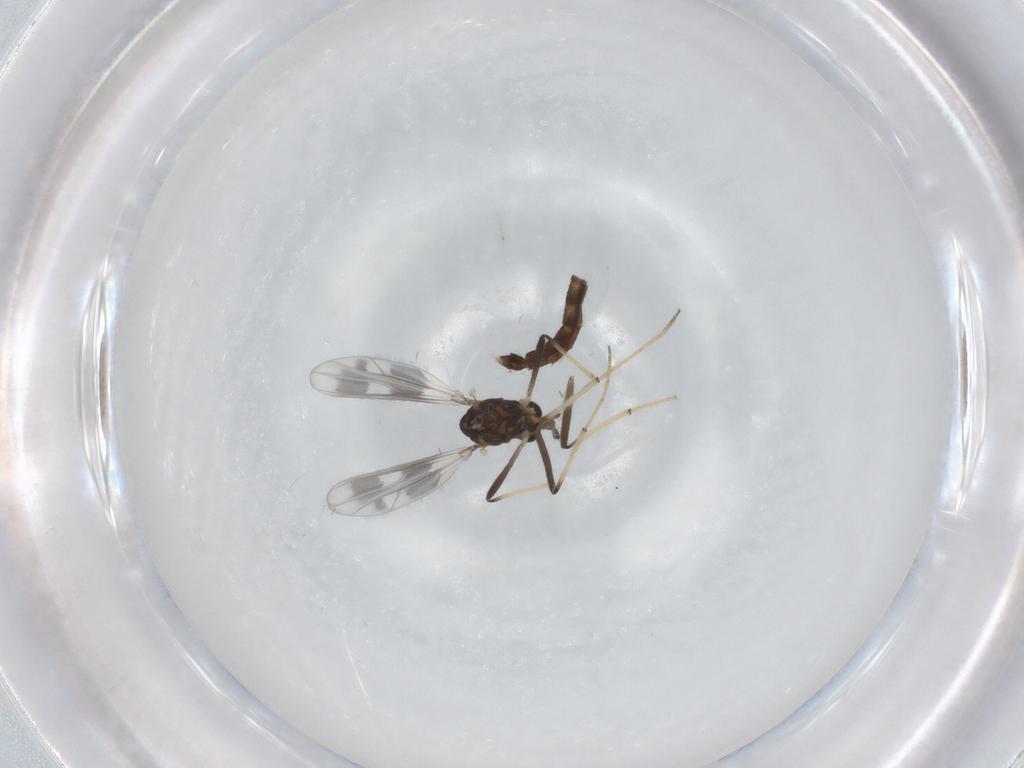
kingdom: Animalia
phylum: Arthropoda
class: Insecta
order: Diptera
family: Chironomidae
